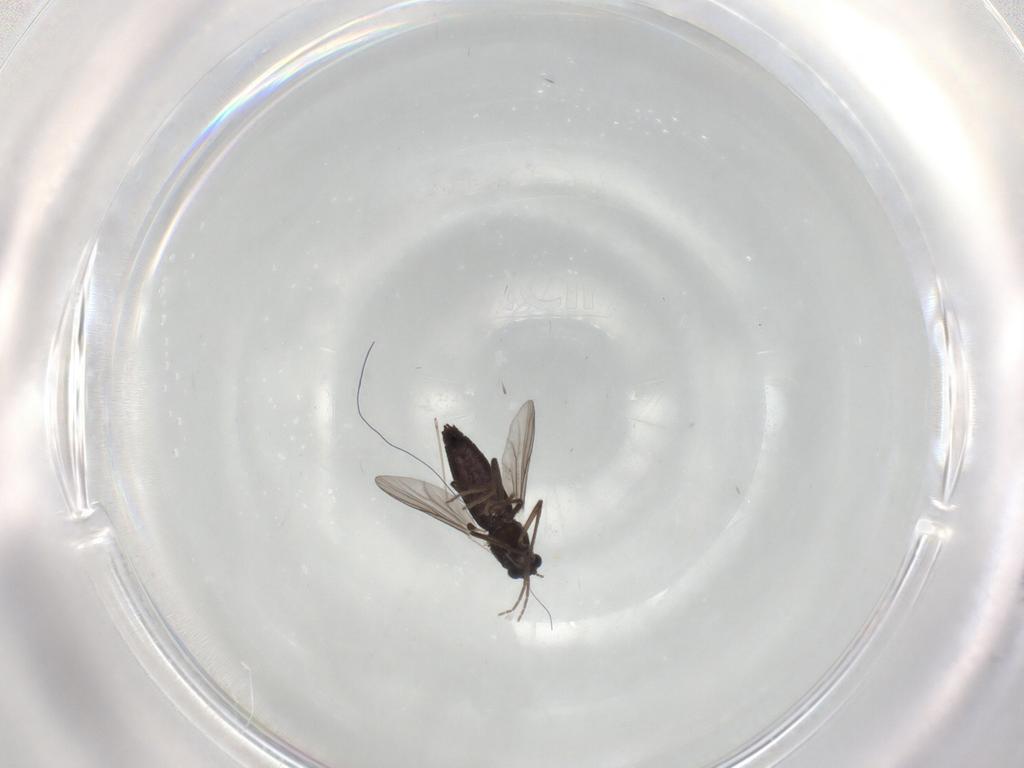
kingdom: Animalia
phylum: Arthropoda
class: Insecta
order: Diptera
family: Chironomidae
